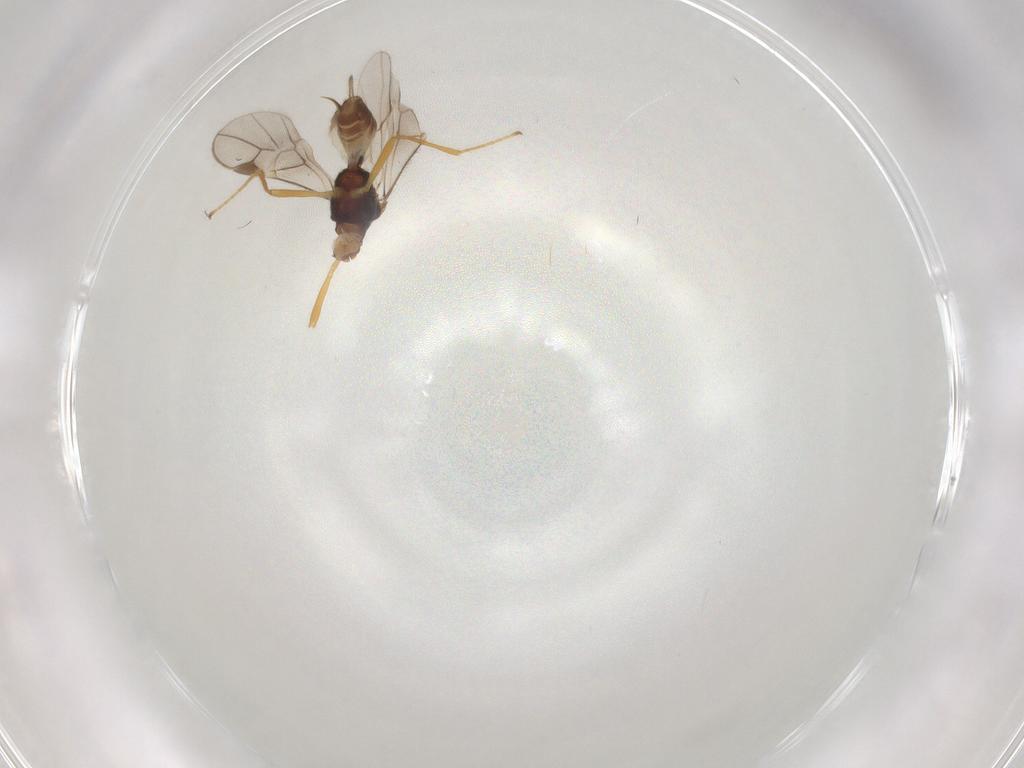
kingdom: Animalia
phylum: Arthropoda
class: Insecta
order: Hymenoptera
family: Braconidae
